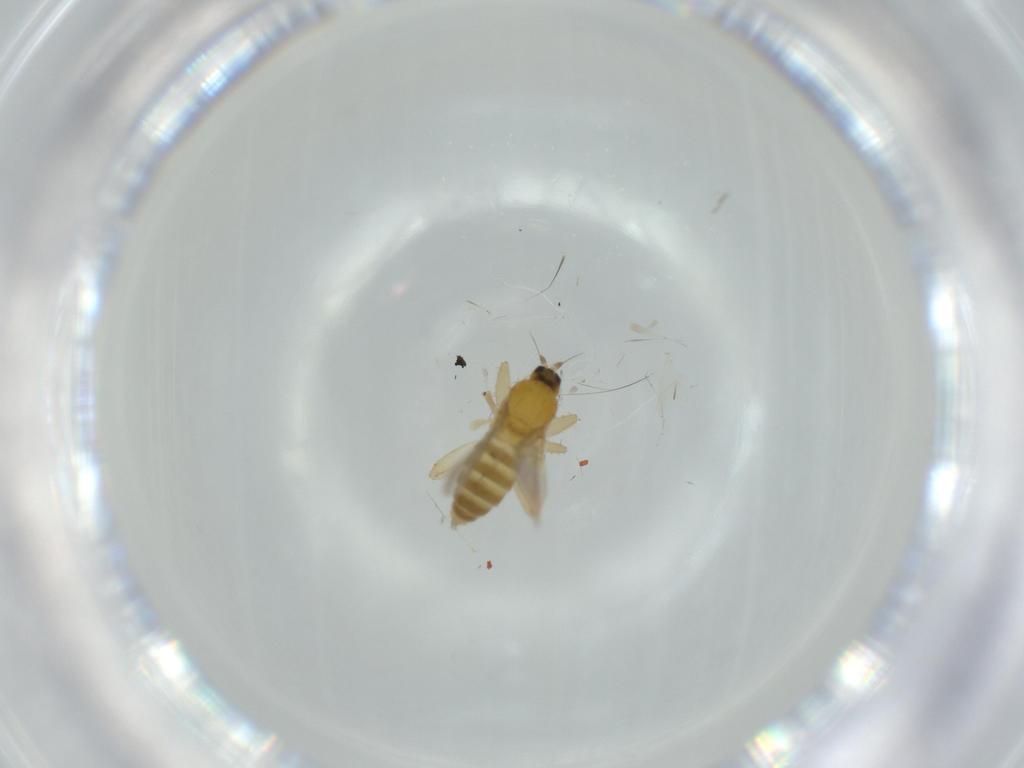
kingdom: Animalia
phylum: Arthropoda
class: Insecta
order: Diptera
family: Hybotidae
